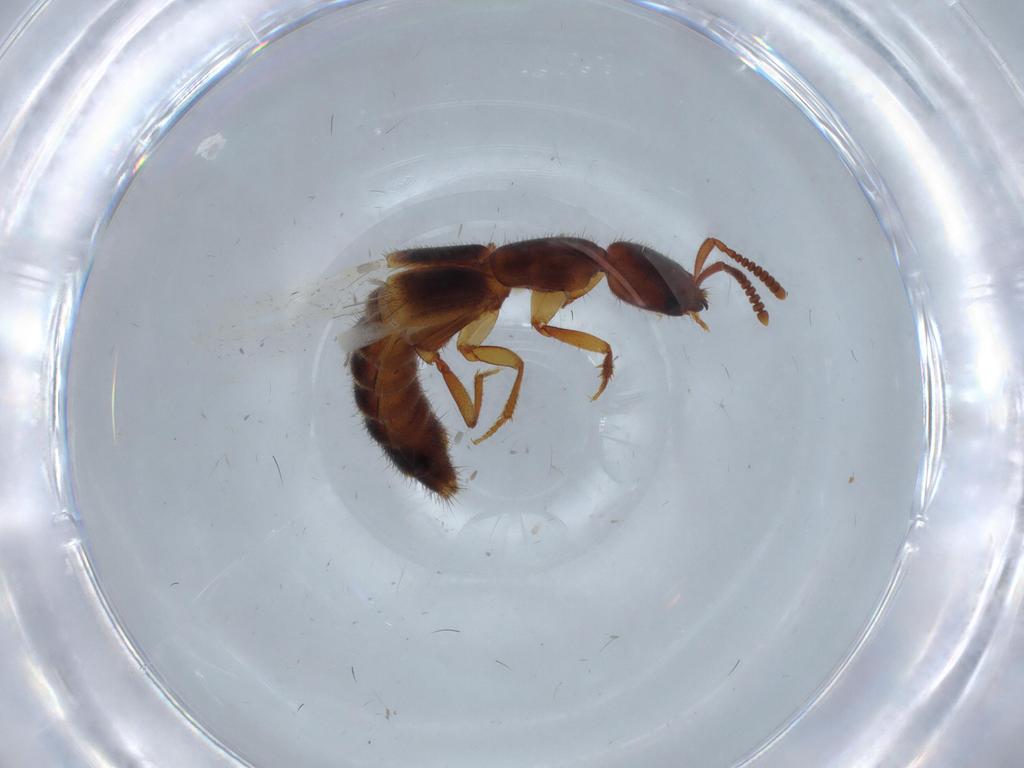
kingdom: Animalia
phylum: Arthropoda
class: Insecta
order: Coleoptera
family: Staphylinidae
